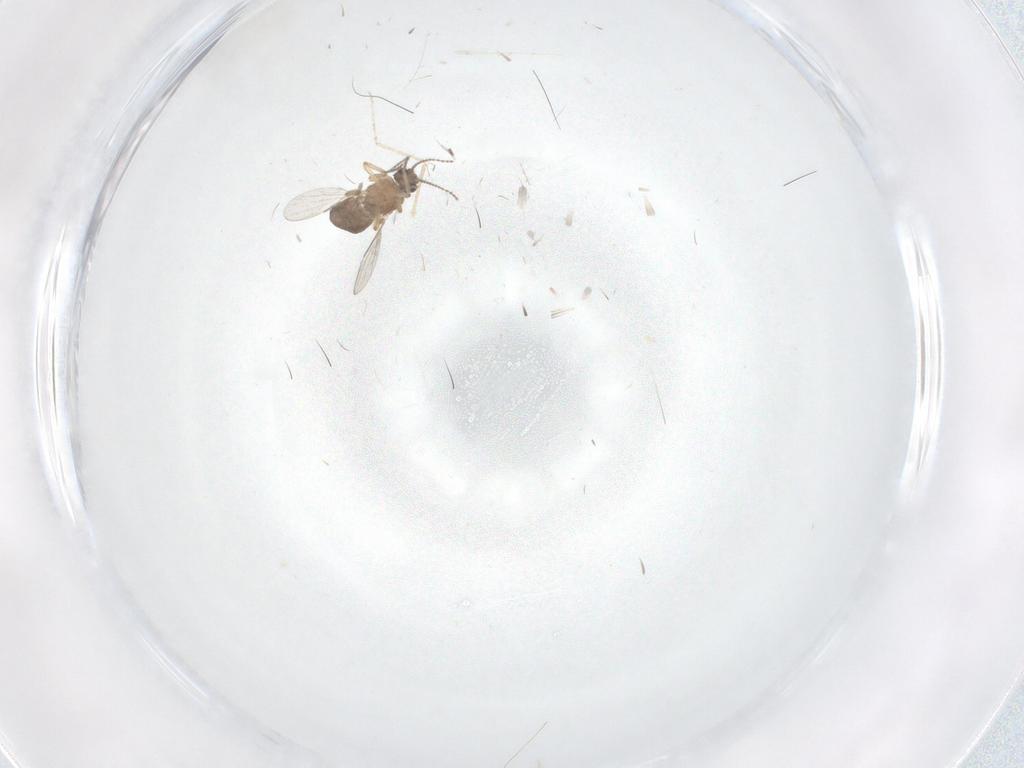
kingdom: Animalia
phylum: Arthropoda
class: Insecta
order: Diptera
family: Ceratopogonidae
